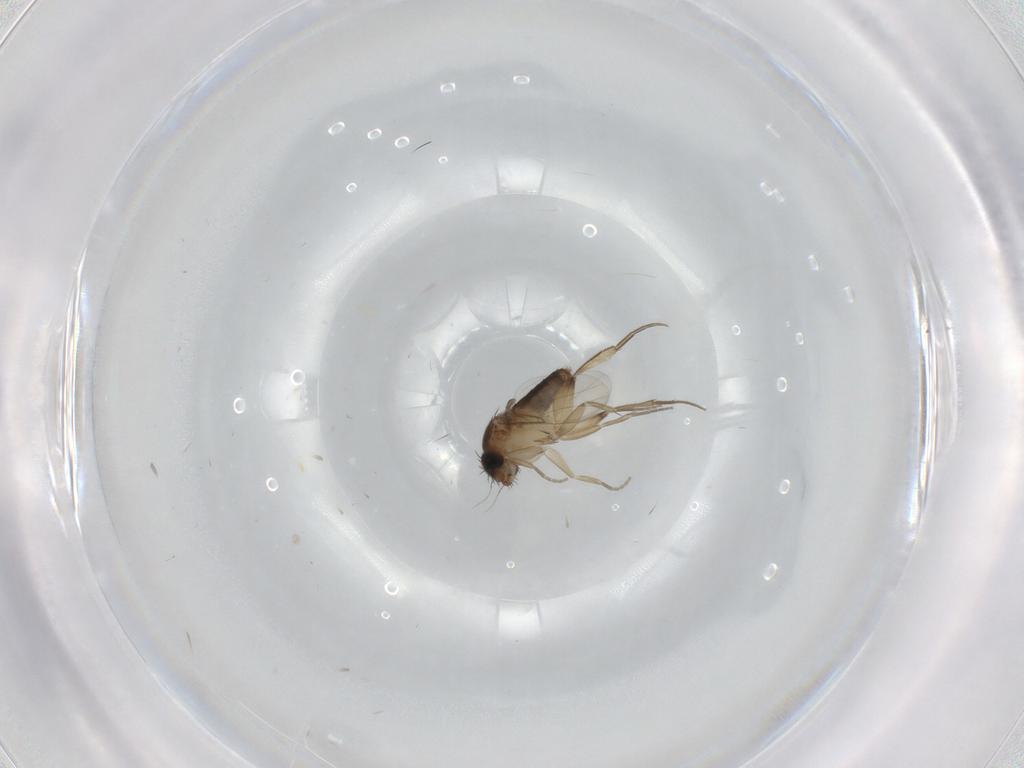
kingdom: Animalia
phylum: Arthropoda
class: Insecta
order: Diptera
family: Phoridae
